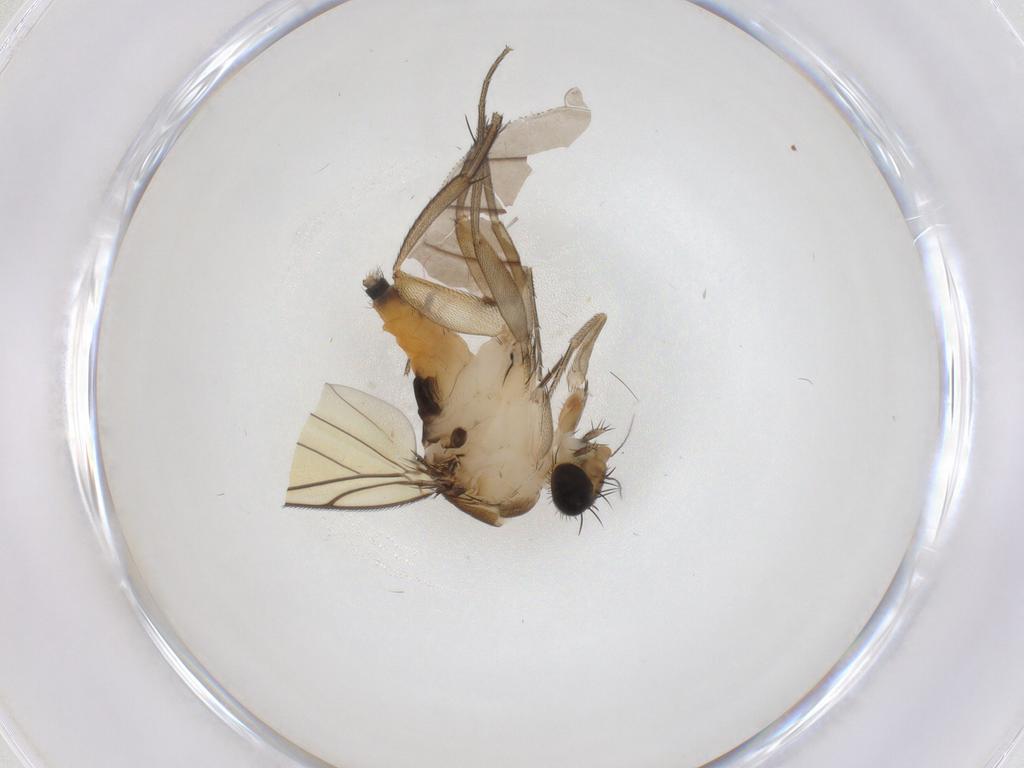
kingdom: Animalia
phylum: Arthropoda
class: Insecta
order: Diptera
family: Phoridae
